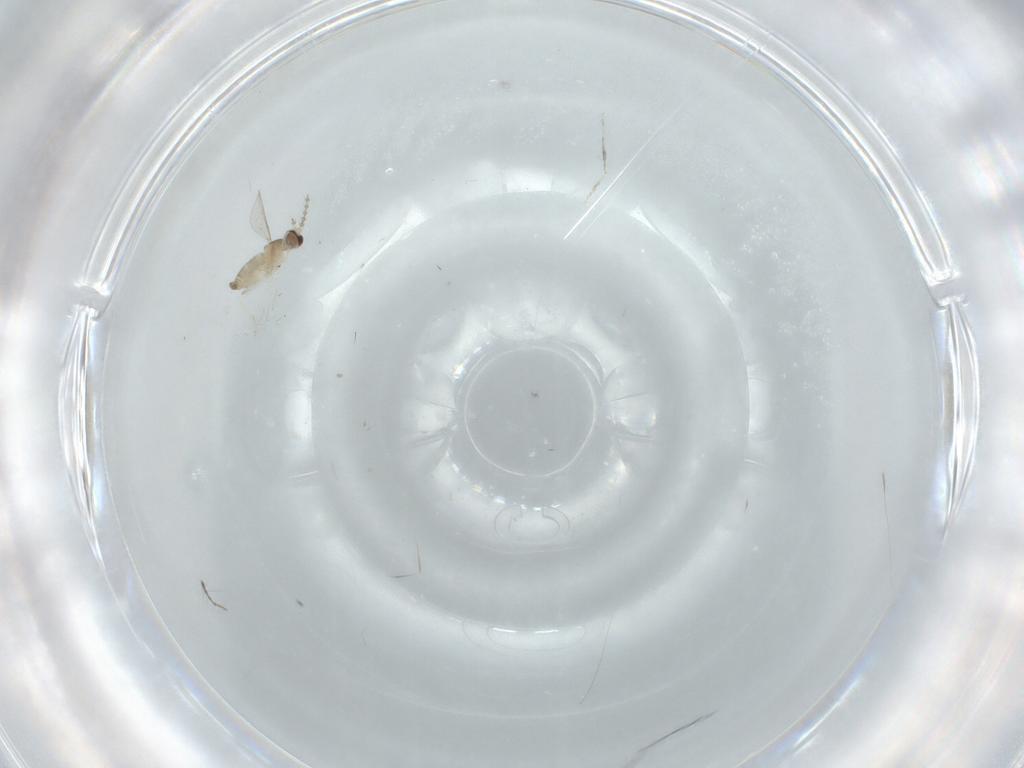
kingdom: Animalia
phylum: Arthropoda
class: Insecta
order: Diptera
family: Cecidomyiidae
